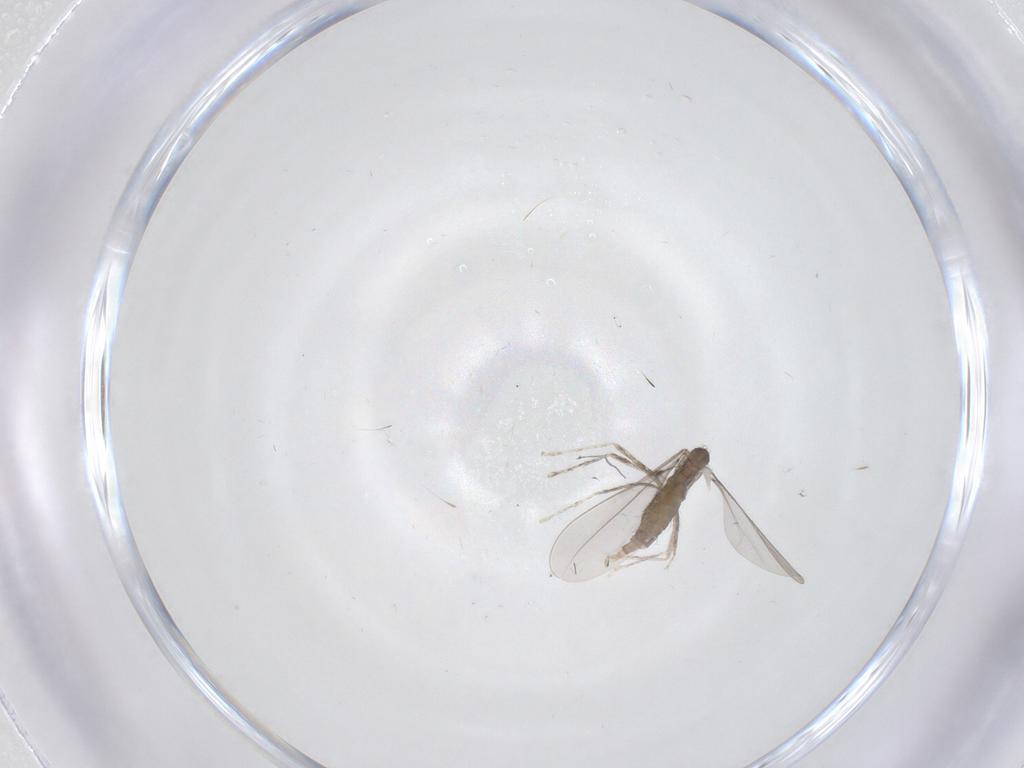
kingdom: Animalia
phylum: Arthropoda
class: Insecta
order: Diptera
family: Cecidomyiidae
